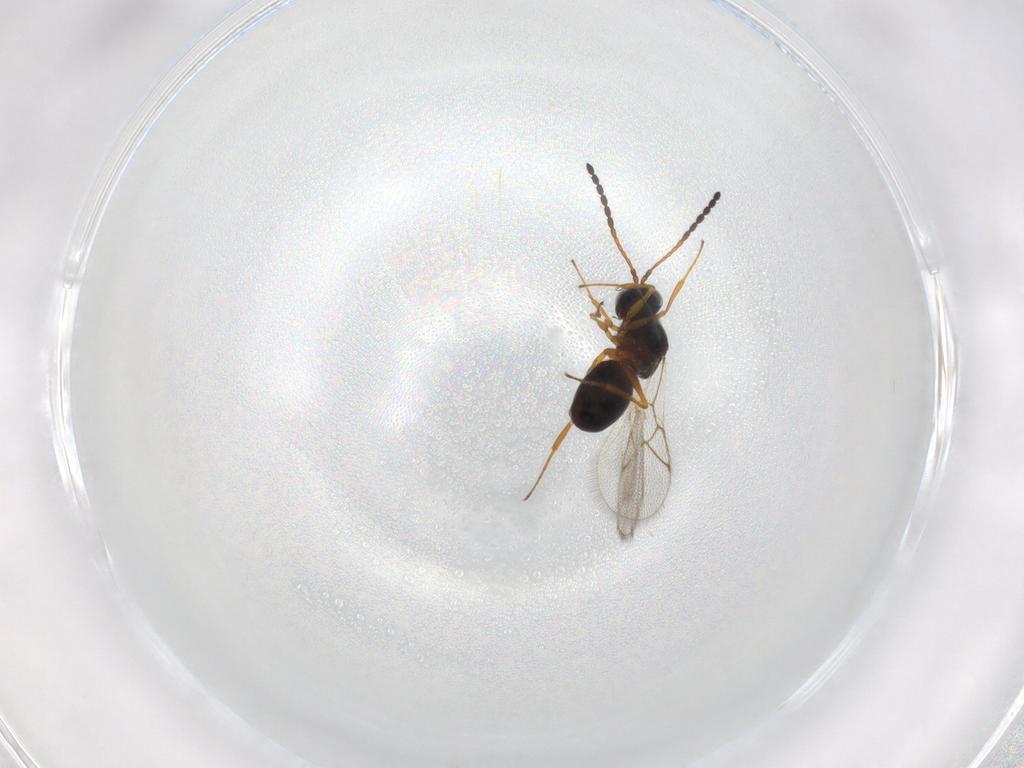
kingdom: Animalia
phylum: Arthropoda
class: Insecta
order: Hymenoptera
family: Figitidae
